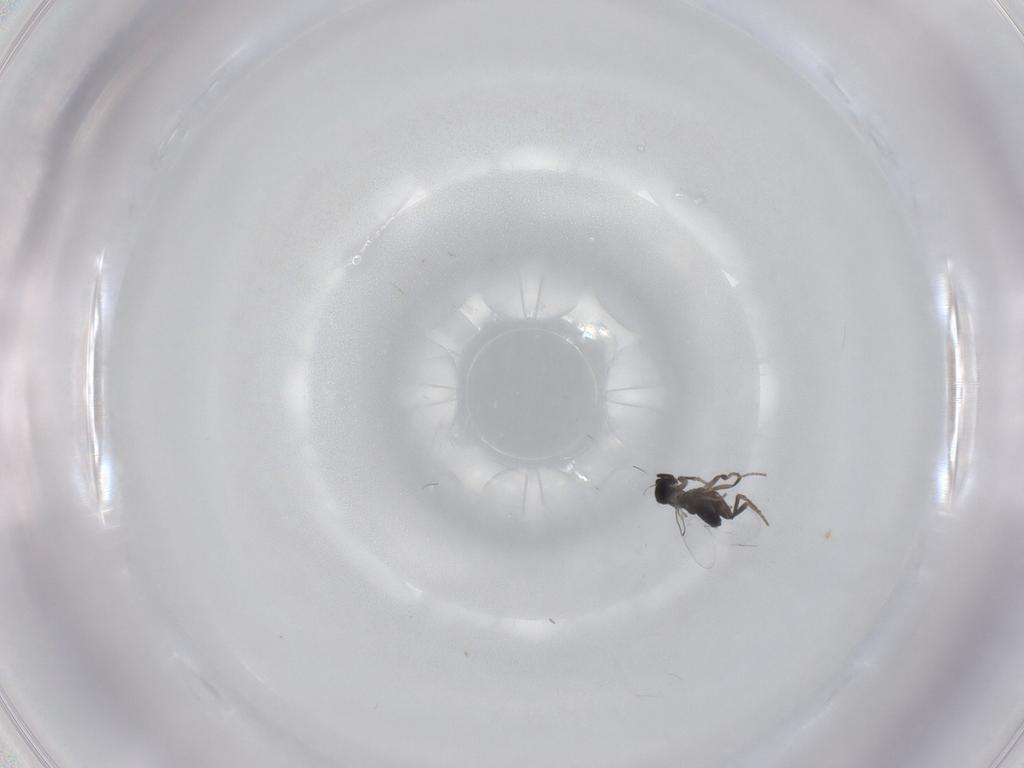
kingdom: Animalia
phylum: Arthropoda
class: Insecta
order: Diptera
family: Phoridae
